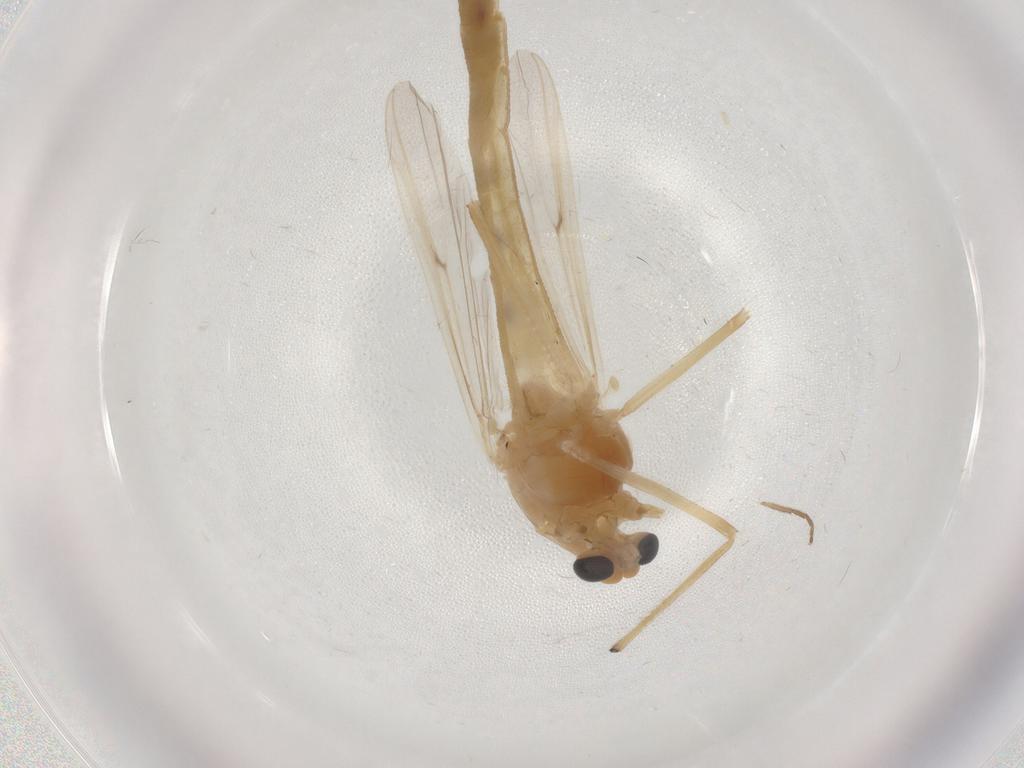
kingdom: Animalia
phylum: Arthropoda
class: Insecta
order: Diptera
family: Chironomidae
